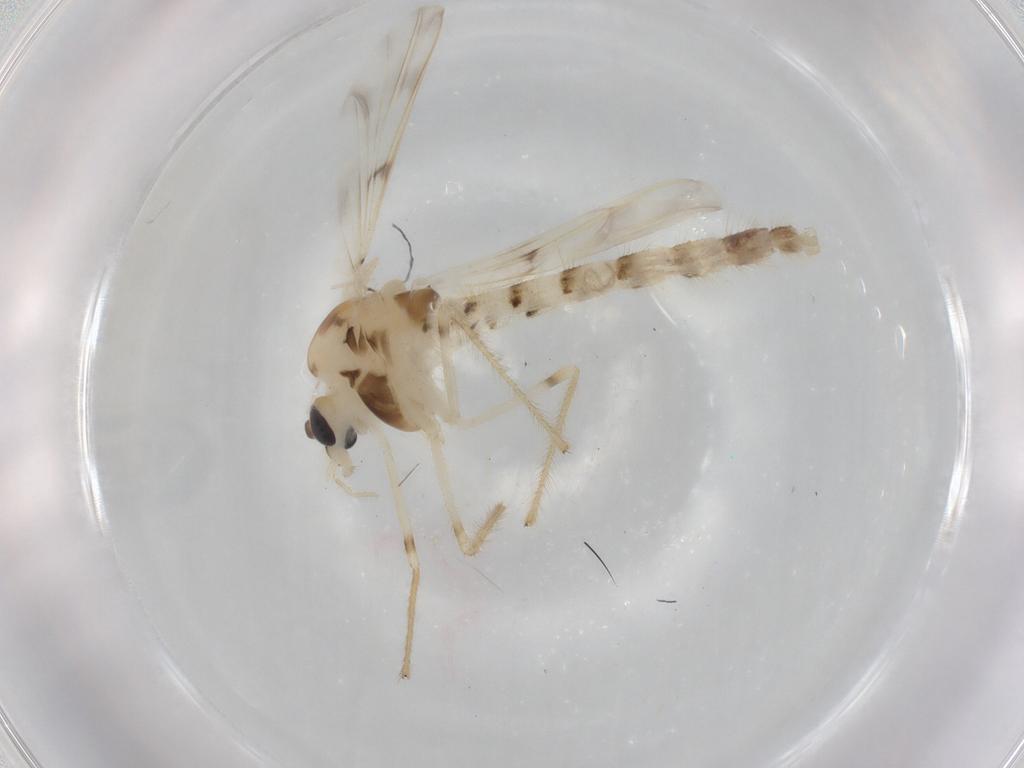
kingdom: Animalia
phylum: Arthropoda
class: Insecta
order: Diptera
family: Chironomidae
